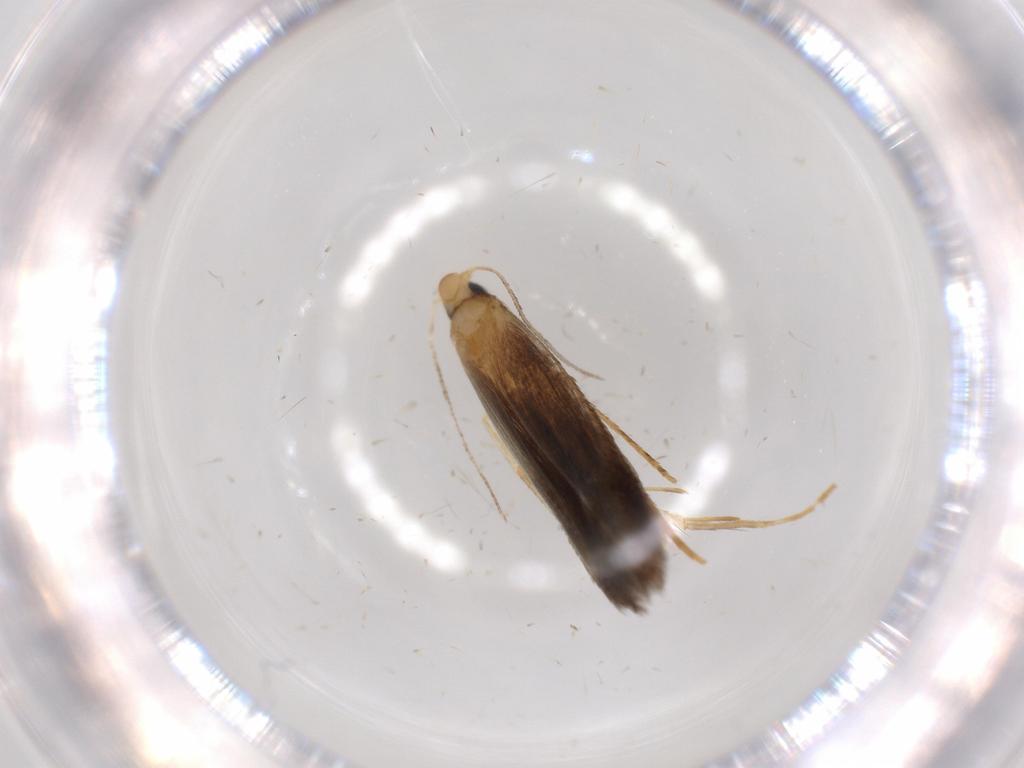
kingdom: Animalia
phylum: Arthropoda
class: Insecta
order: Lepidoptera
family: Tischeriidae
